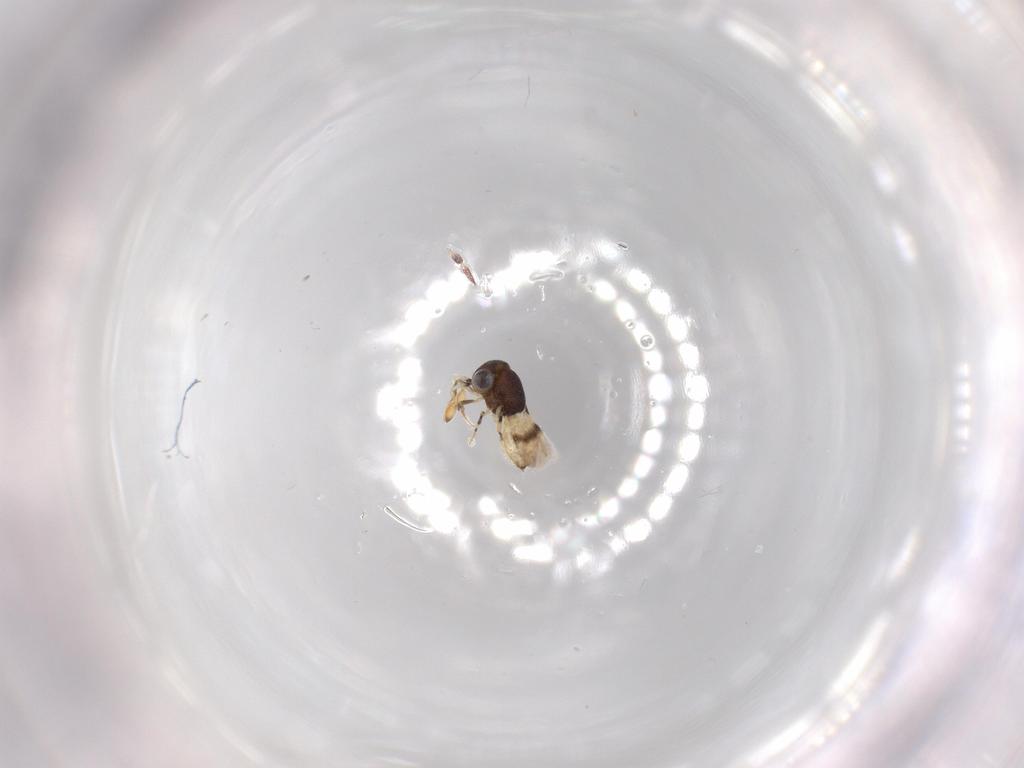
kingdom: Animalia
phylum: Arthropoda
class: Insecta
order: Hymenoptera
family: Scelionidae
